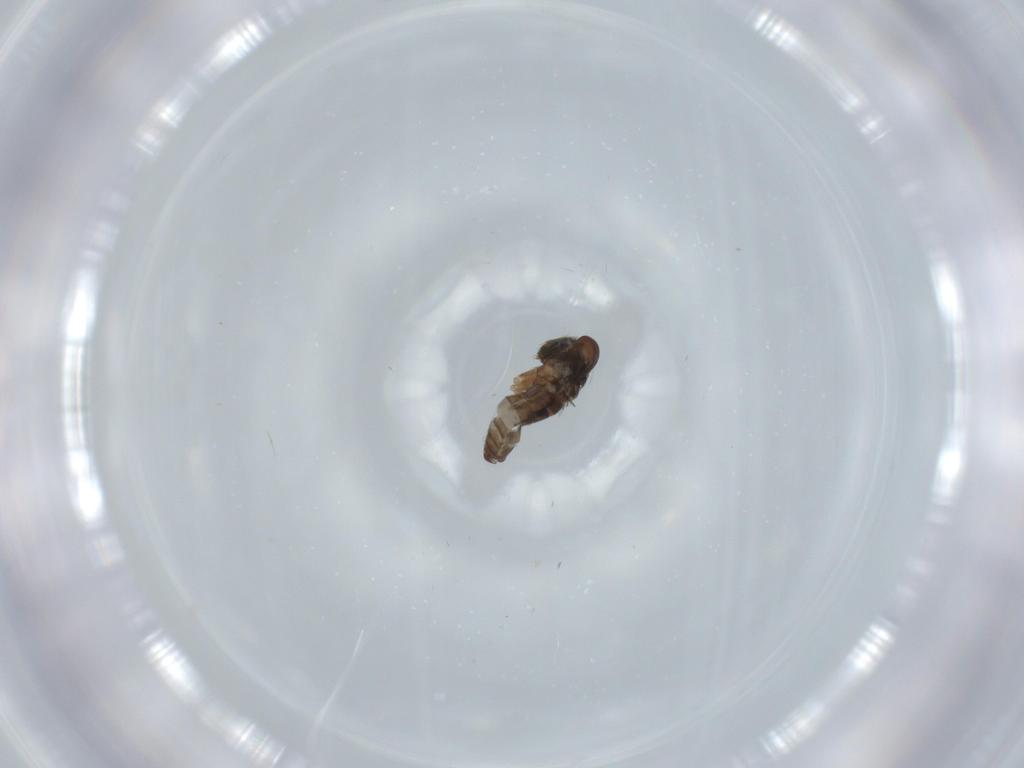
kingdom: Animalia
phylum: Arthropoda
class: Insecta
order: Diptera
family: Psychodidae
